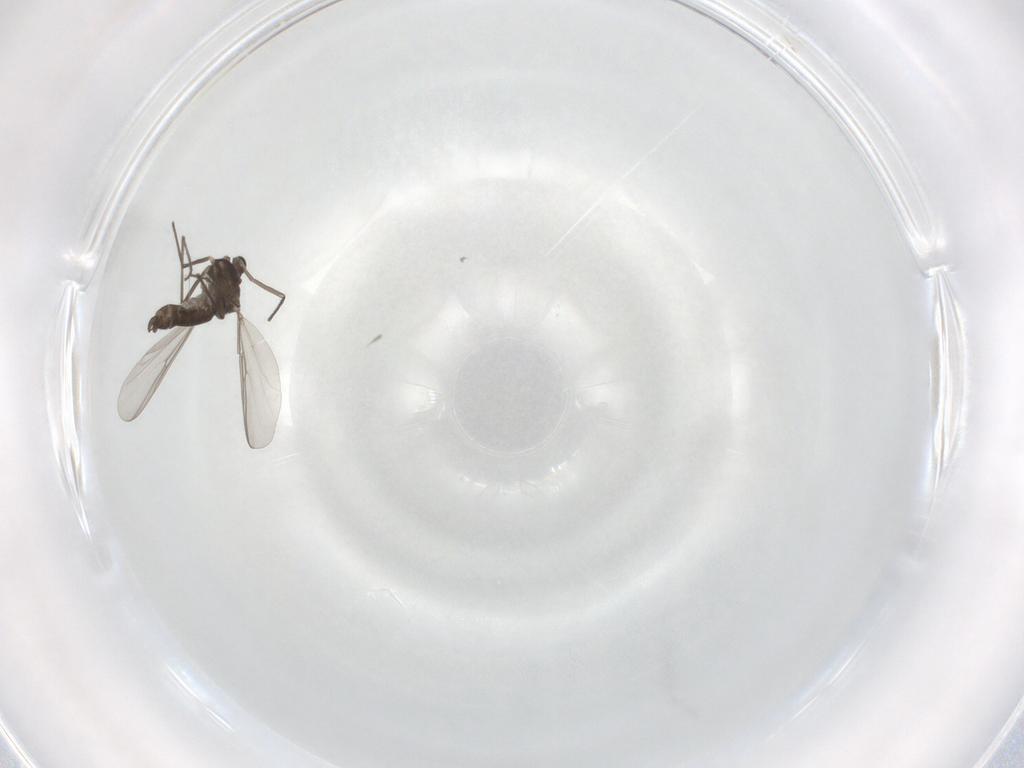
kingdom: Animalia
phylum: Arthropoda
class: Insecta
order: Diptera
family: Chironomidae
